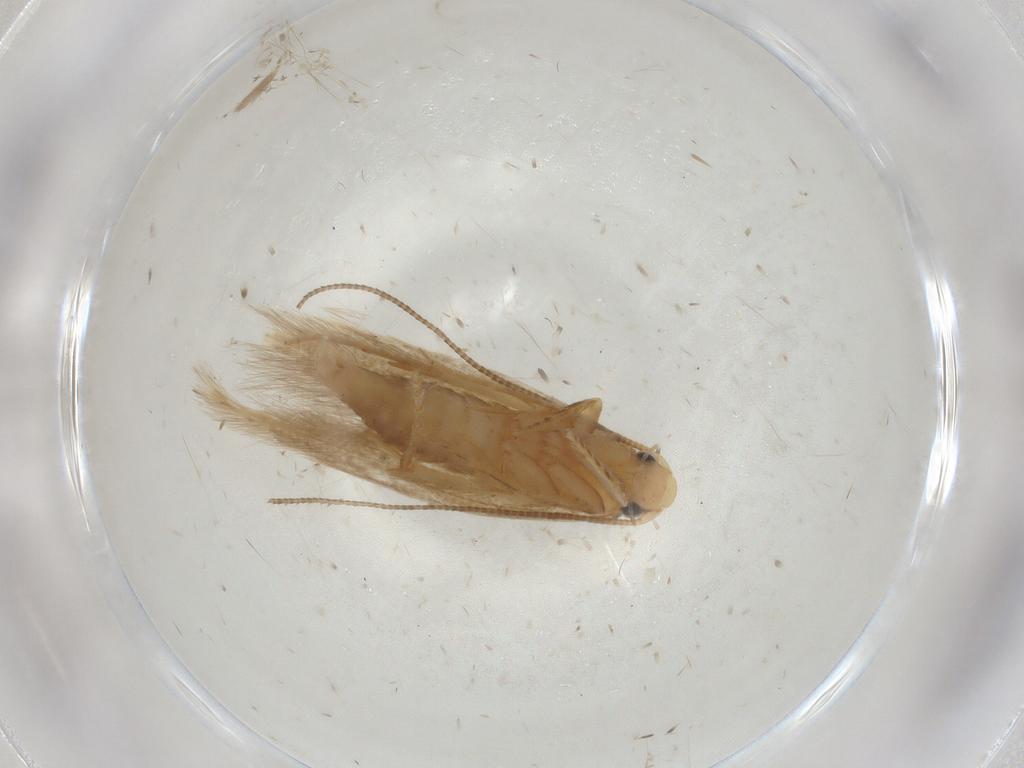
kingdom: Animalia
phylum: Arthropoda
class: Insecta
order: Lepidoptera
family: Tineidae
